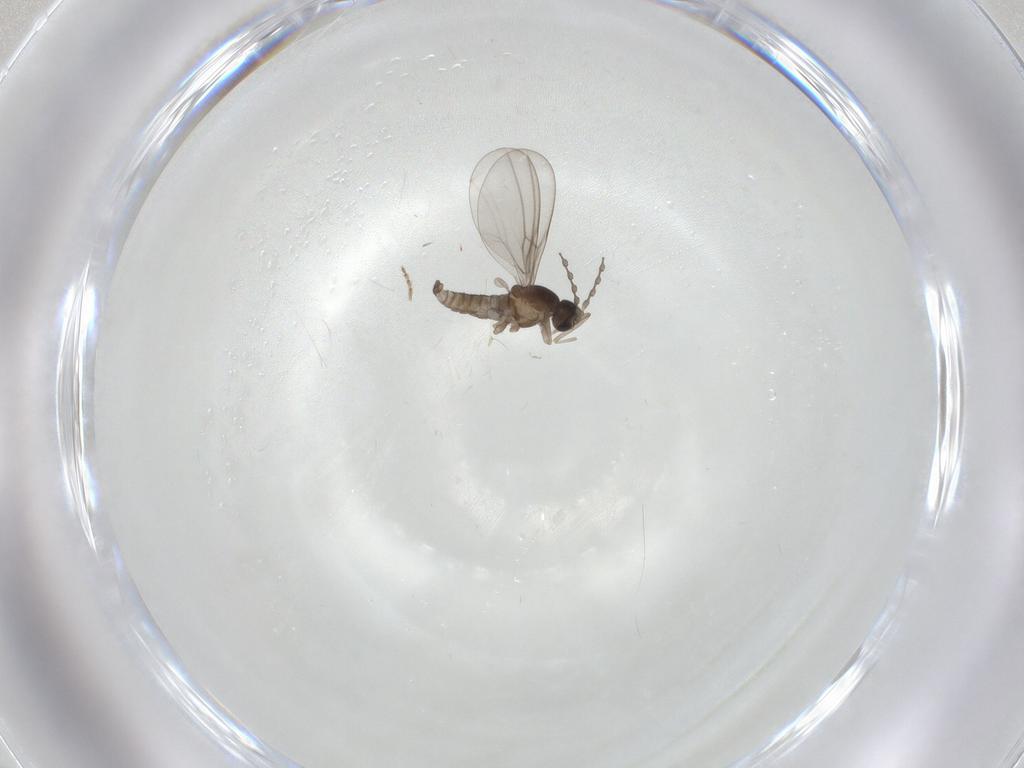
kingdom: Animalia
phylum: Arthropoda
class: Insecta
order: Diptera
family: Cecidomyiidae
